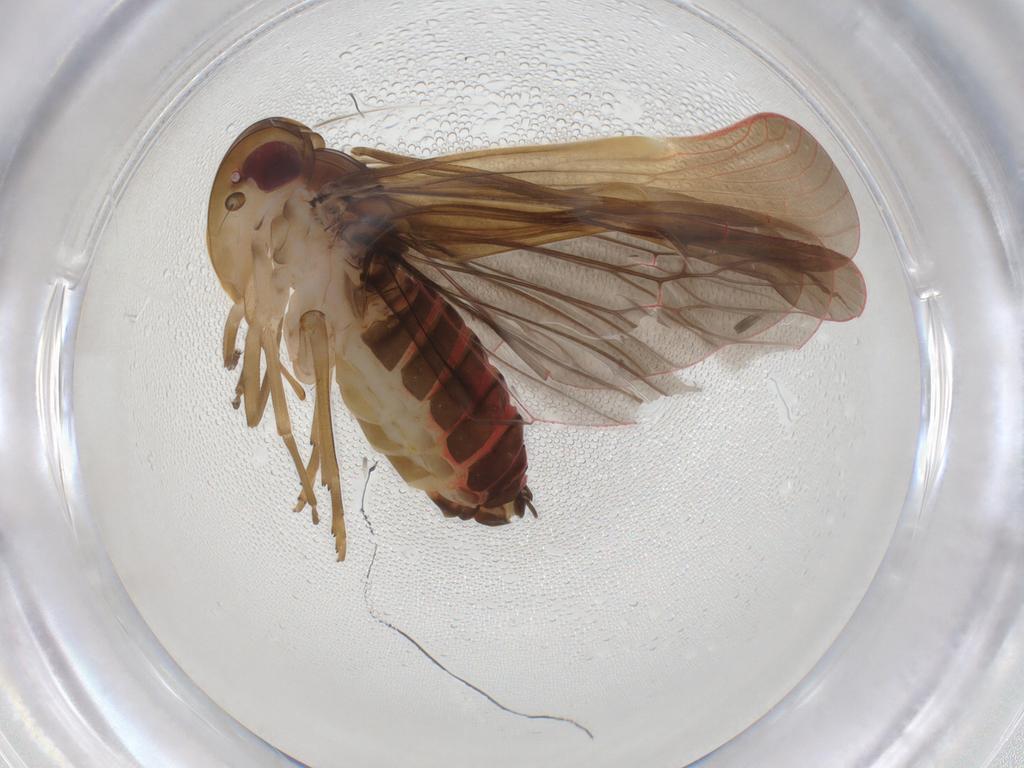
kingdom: Animalia
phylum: Arthropoda
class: Insecta
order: Hemiptera
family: Achilidae
